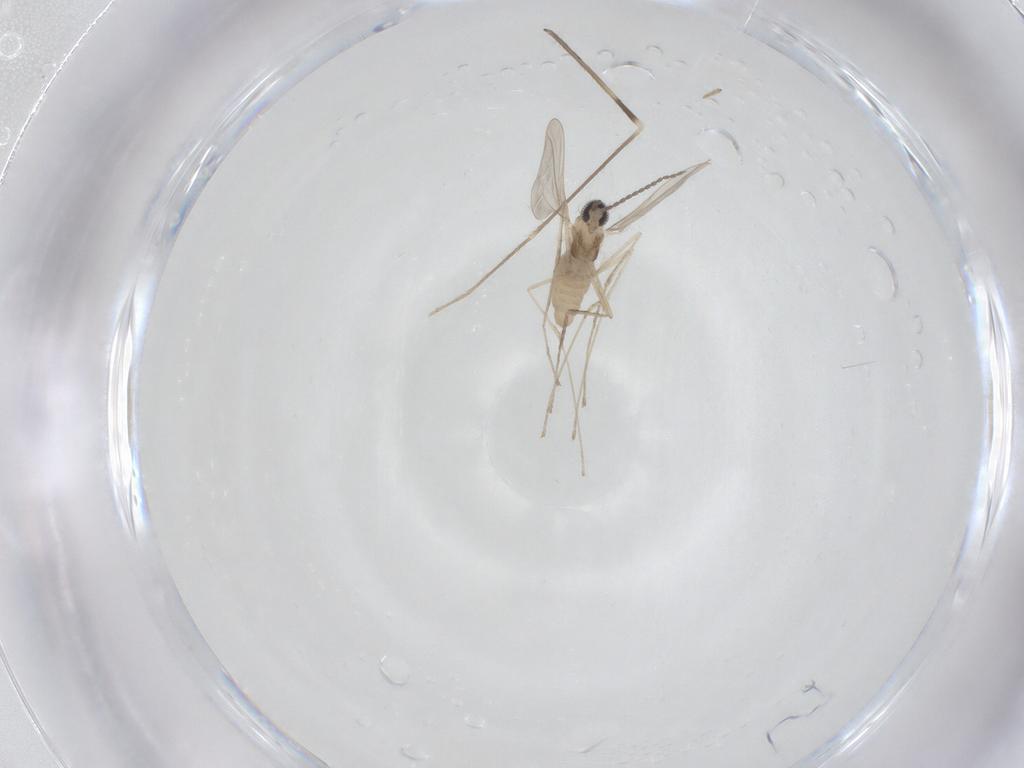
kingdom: Animalia
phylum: Arthropoda
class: Insecta
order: Diptera
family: Limoniidae
